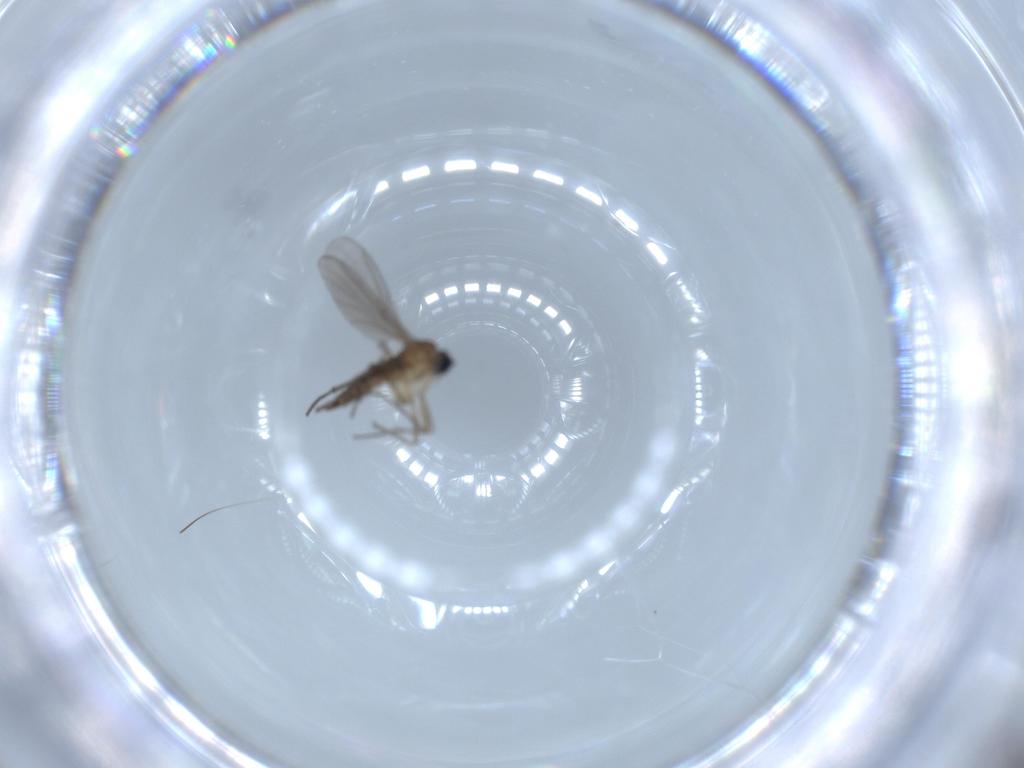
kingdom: Animalia
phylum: Arthropoda
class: Insecta
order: Diptera
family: Sciaridae
